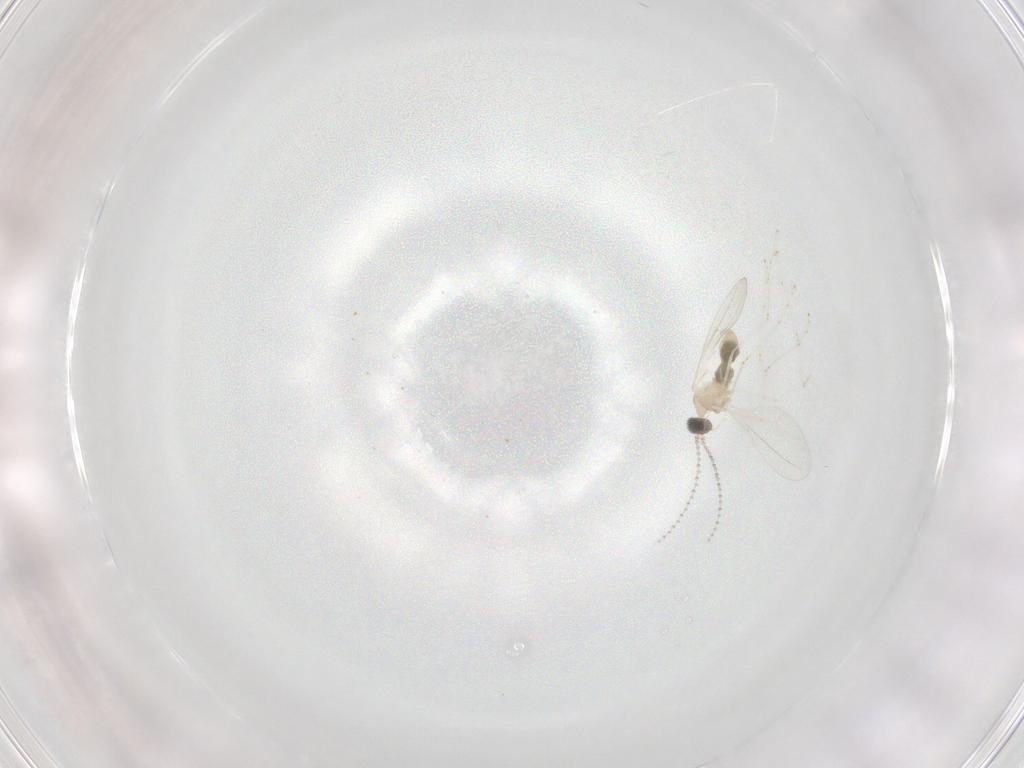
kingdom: Animalia
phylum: Arthropoda
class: Insecta
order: Diptera
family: Cecidomyiidae
